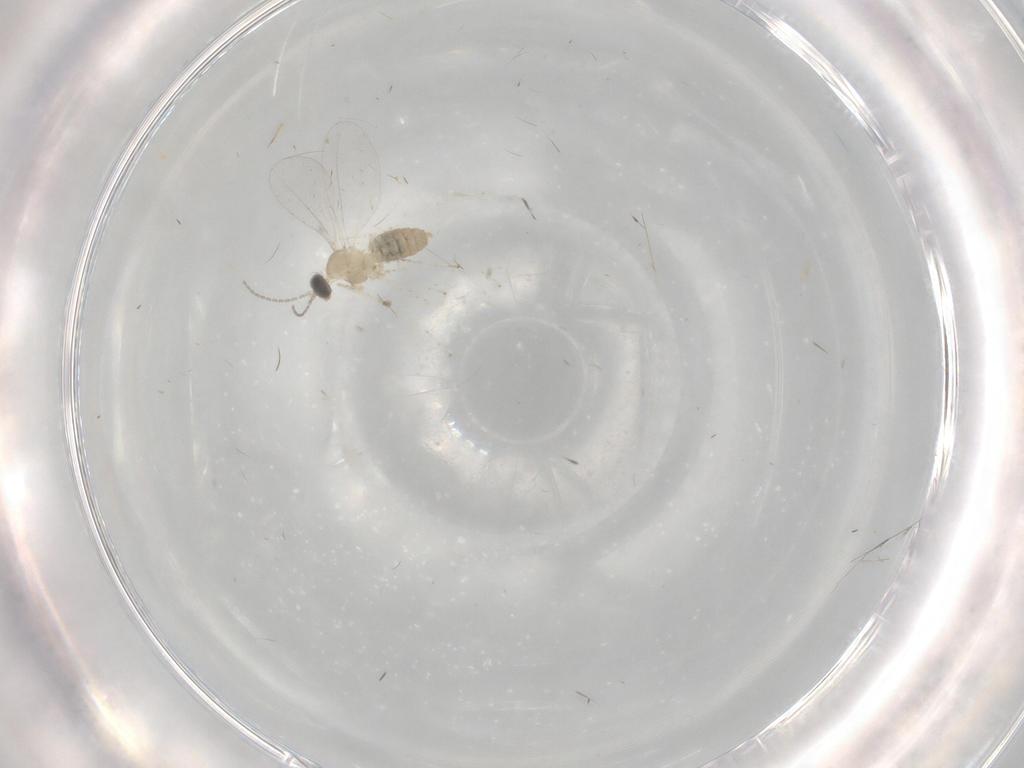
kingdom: Animalia
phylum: Arthropoda
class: Insecta
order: Diptera
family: Cecidomyiidae
